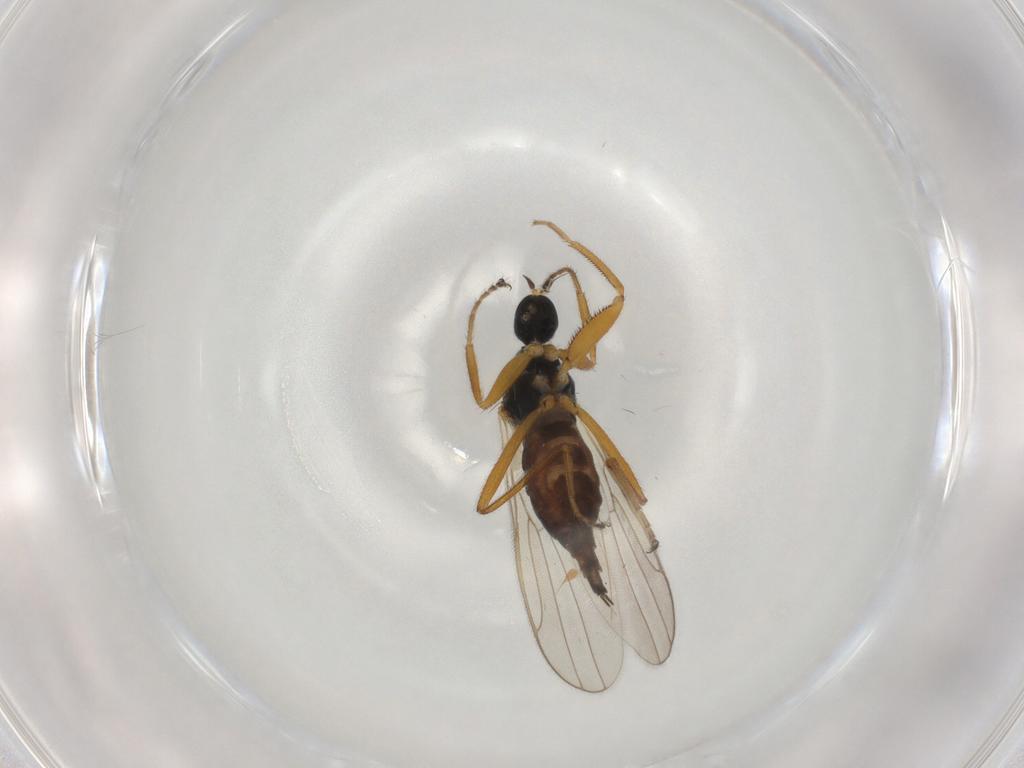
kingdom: Animalia
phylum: Arthropoda
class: Insecta
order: Diptera
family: Hybotidae
